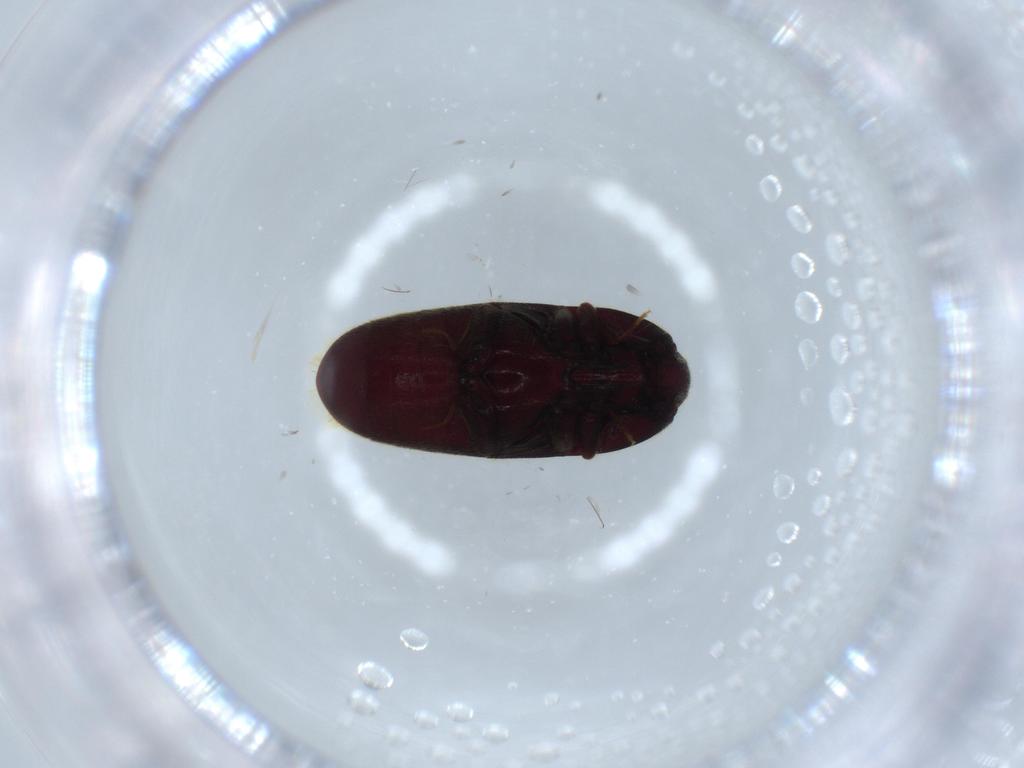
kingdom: Animalia
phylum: Arthropoda
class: Insecta
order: Coleoptera
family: Throscidae
